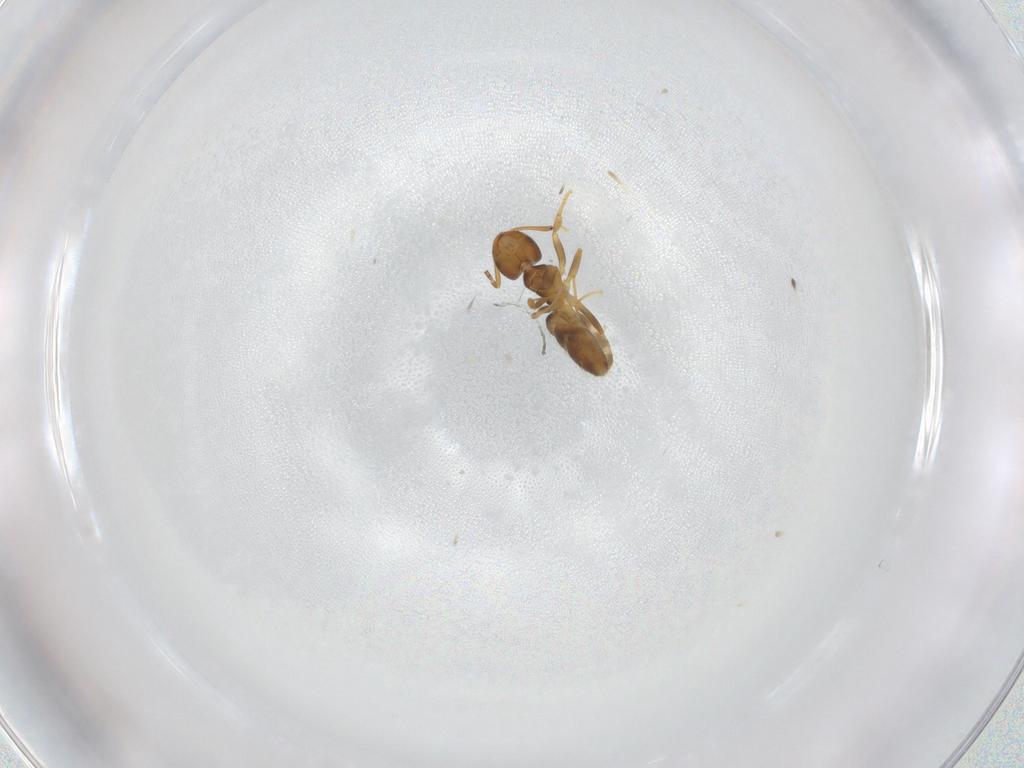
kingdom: Animalia
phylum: Arthropoda
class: Insecta
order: Hymenoptera
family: Formicidae
